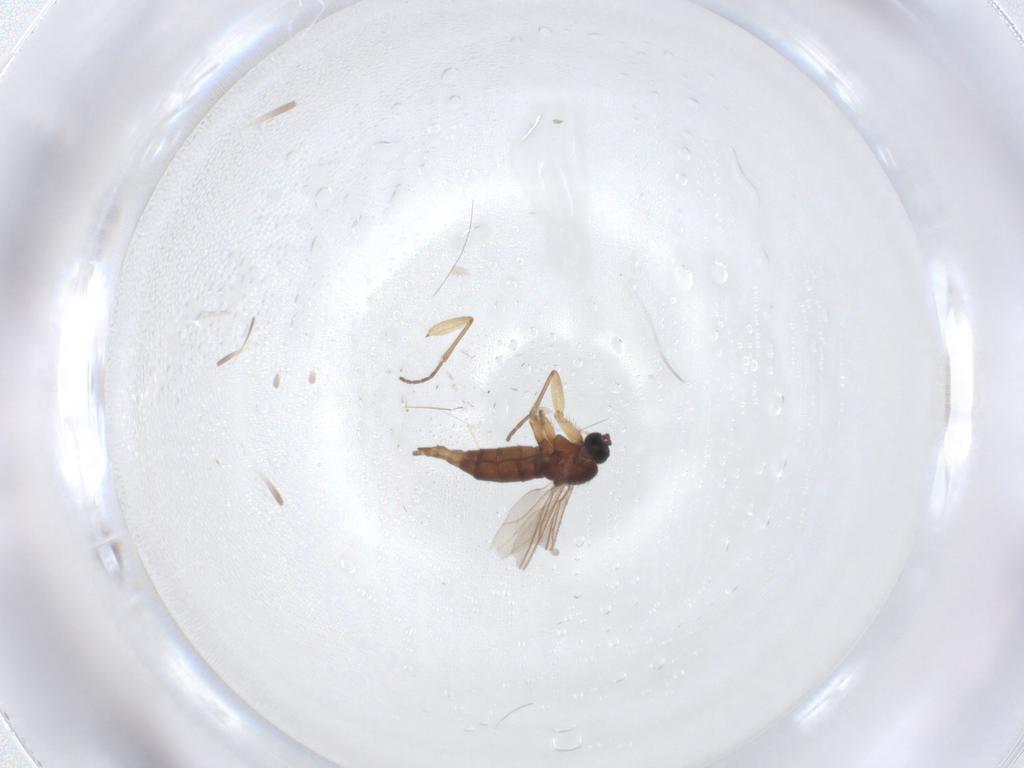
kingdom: Animalia
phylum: Arthropoda
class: Insecta
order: Diptera
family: Sciaridae
